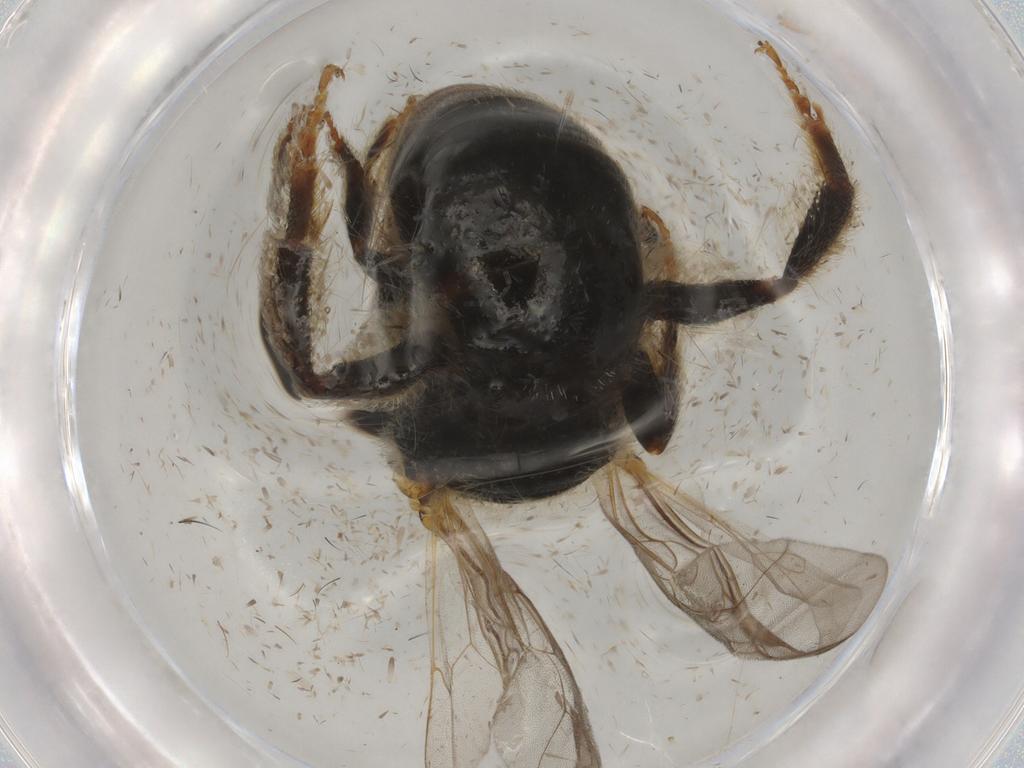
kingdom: Animalia
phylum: Arthropoda
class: Insecta
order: Hymenoptera
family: Halictidae
